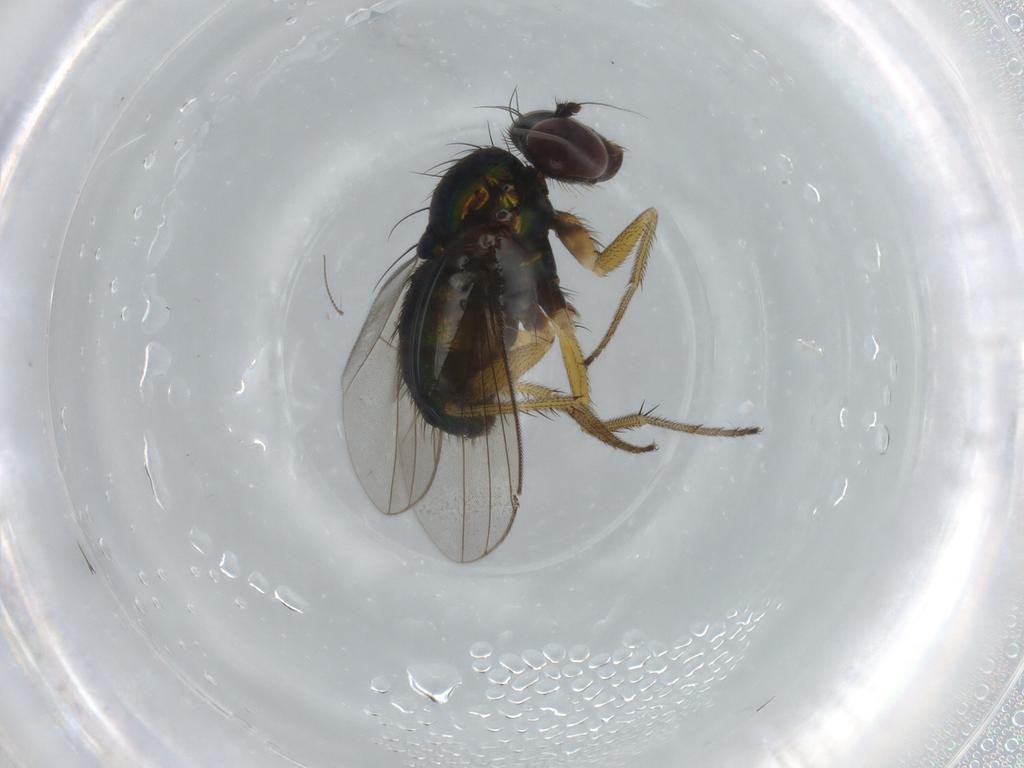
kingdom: Animalia
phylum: Arthropoda
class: Insecta
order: Diptera
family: Dolichopodidae
